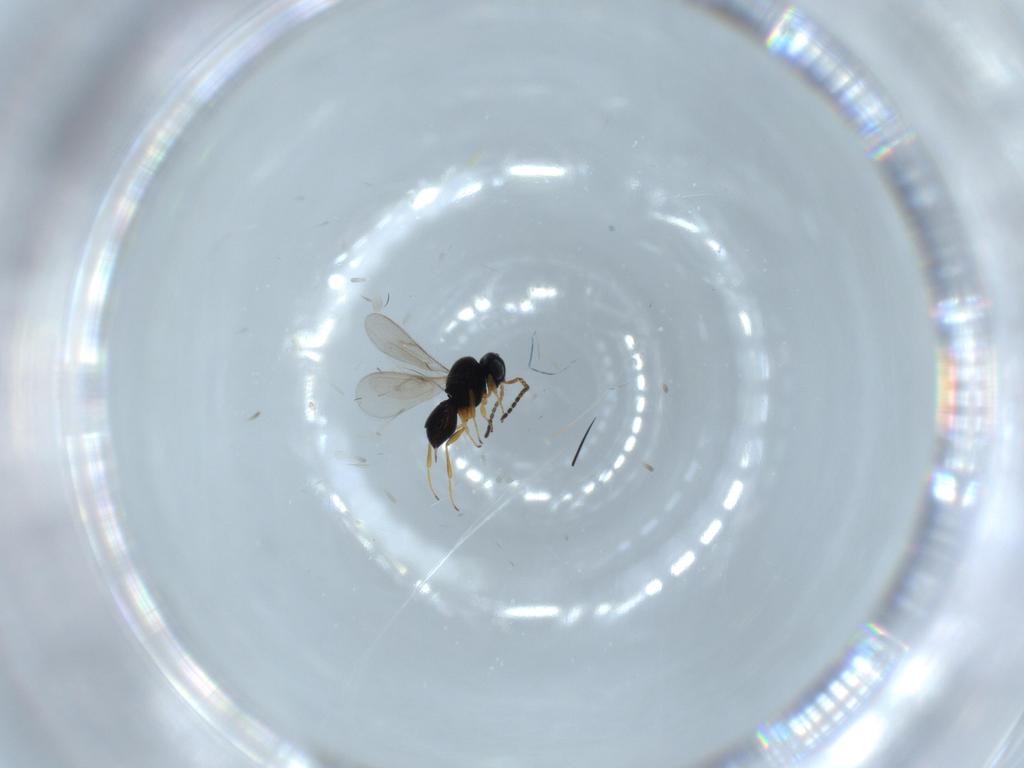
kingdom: Animalia
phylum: Arthropoda
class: Insecta
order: Hymenoptera
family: Scelionidae
